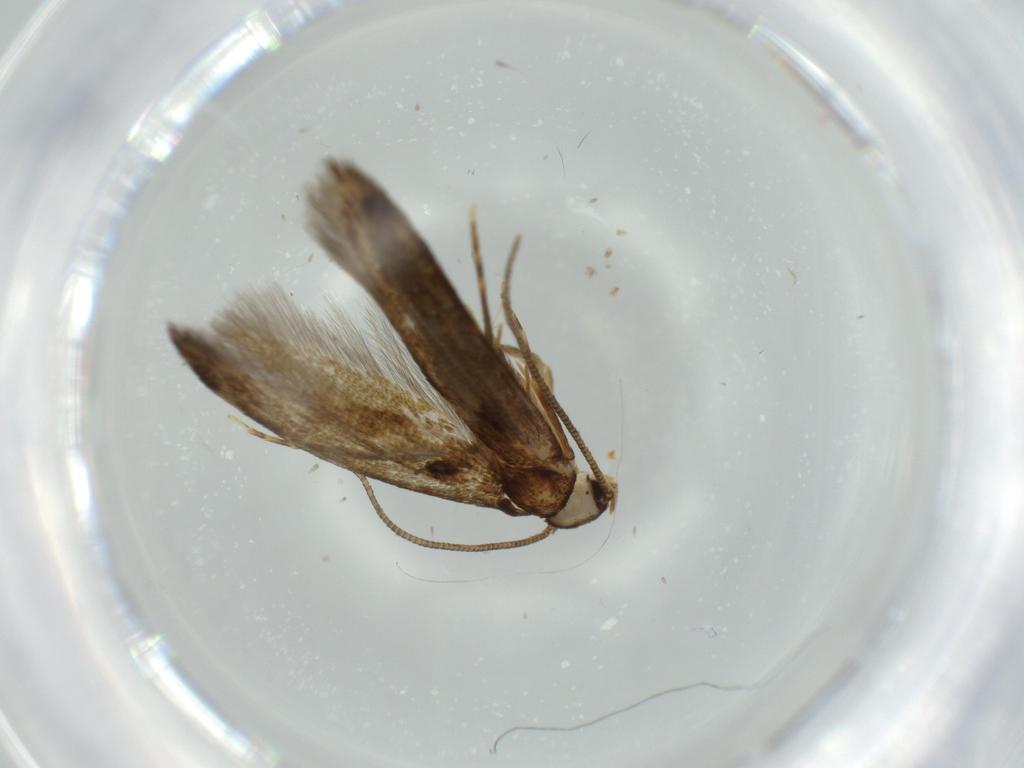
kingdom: Animalia
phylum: Arthropoda
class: Insecta
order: Lepidoptera
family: Tineidae
